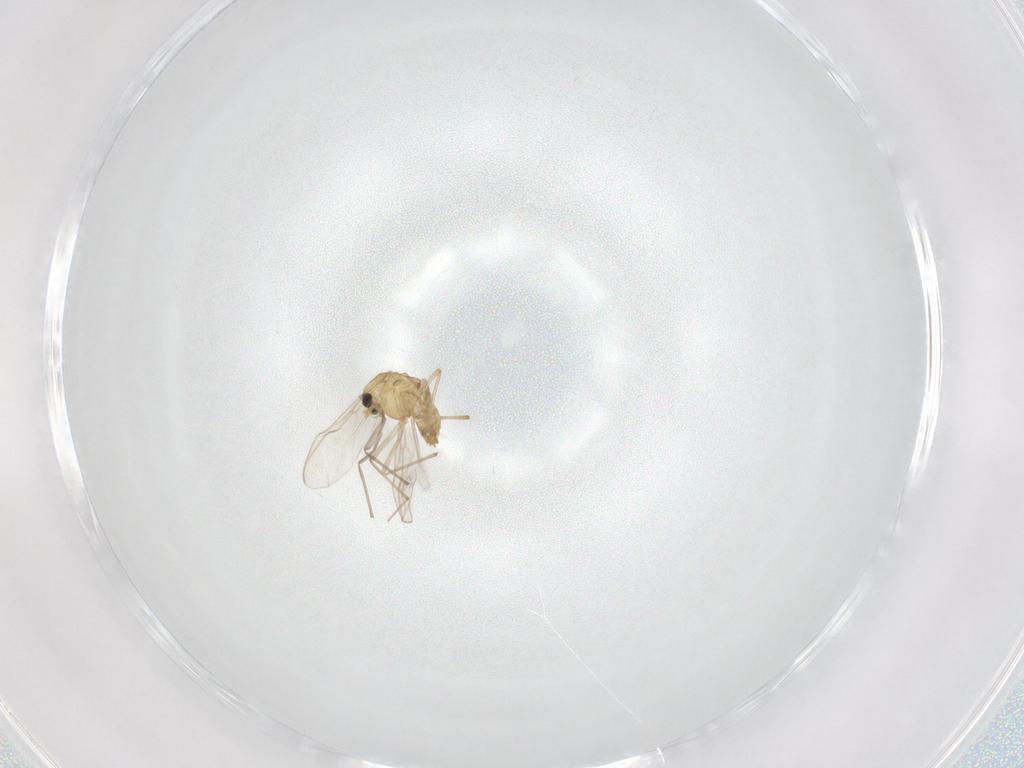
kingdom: Animalia
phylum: Arthropoda
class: Insecta
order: Diptera
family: Chironomidae
